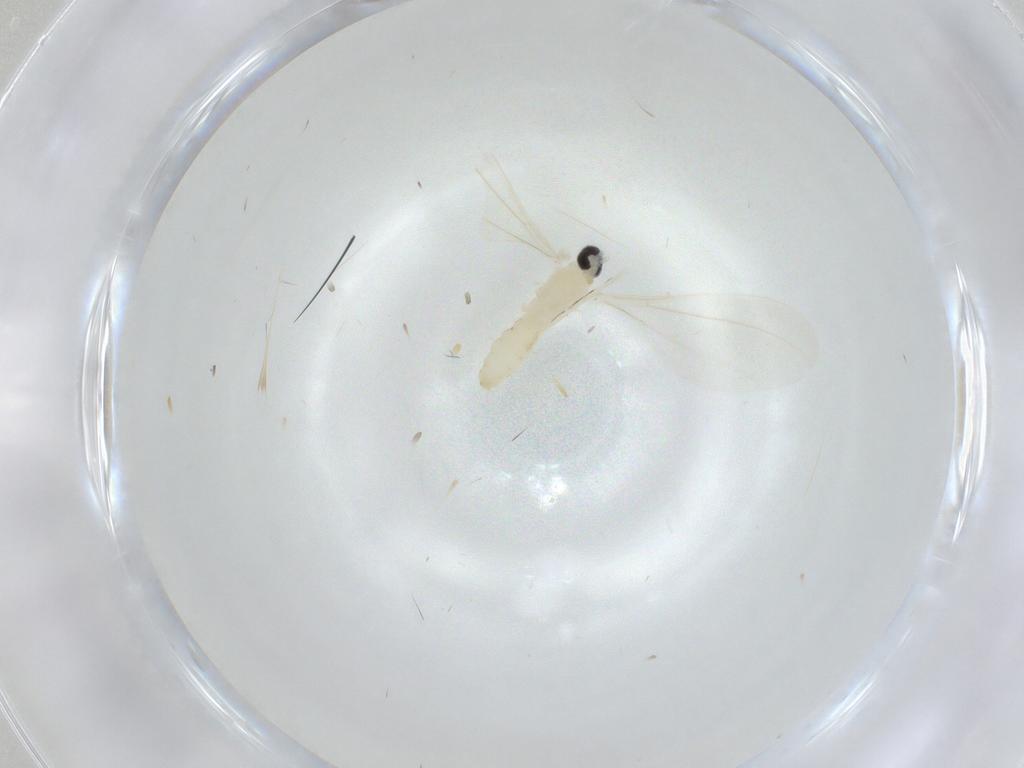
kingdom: Animalia
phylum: Arthropoda
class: Insecta
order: Diptera
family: Cecidomyiidae
